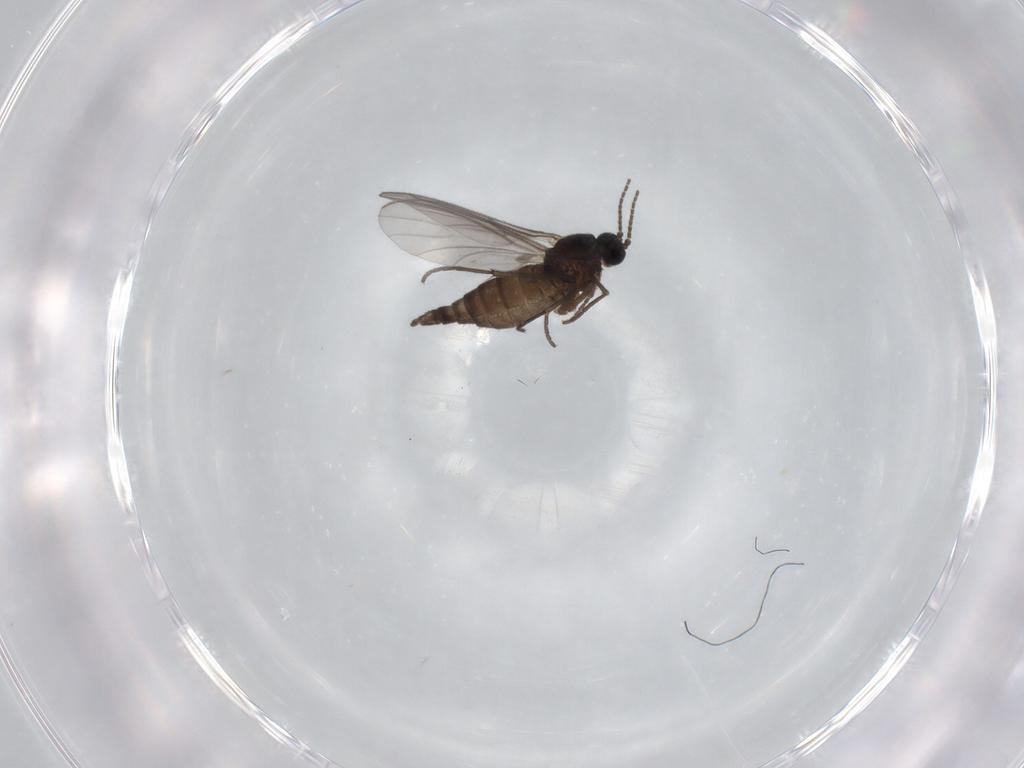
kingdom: Animalia
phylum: Arthropoda
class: Insecta
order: Diptera
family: Sciaridae
